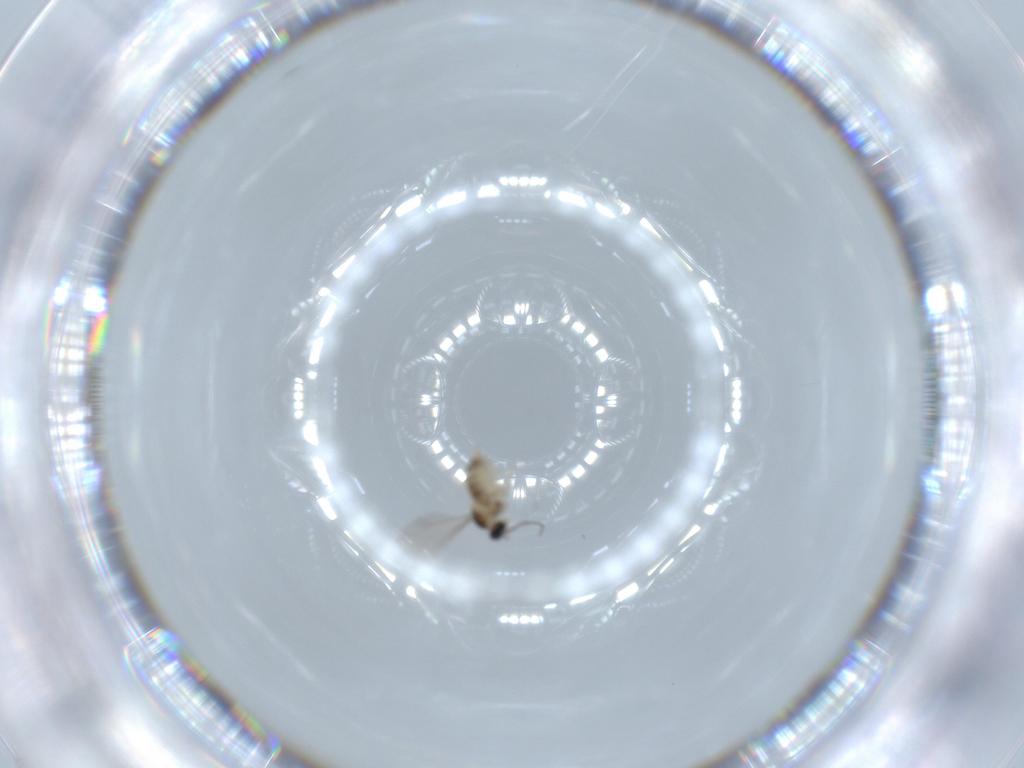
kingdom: Animalia
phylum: Arthropoda
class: Insecta
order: Diptera
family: Cecidomyiidae
